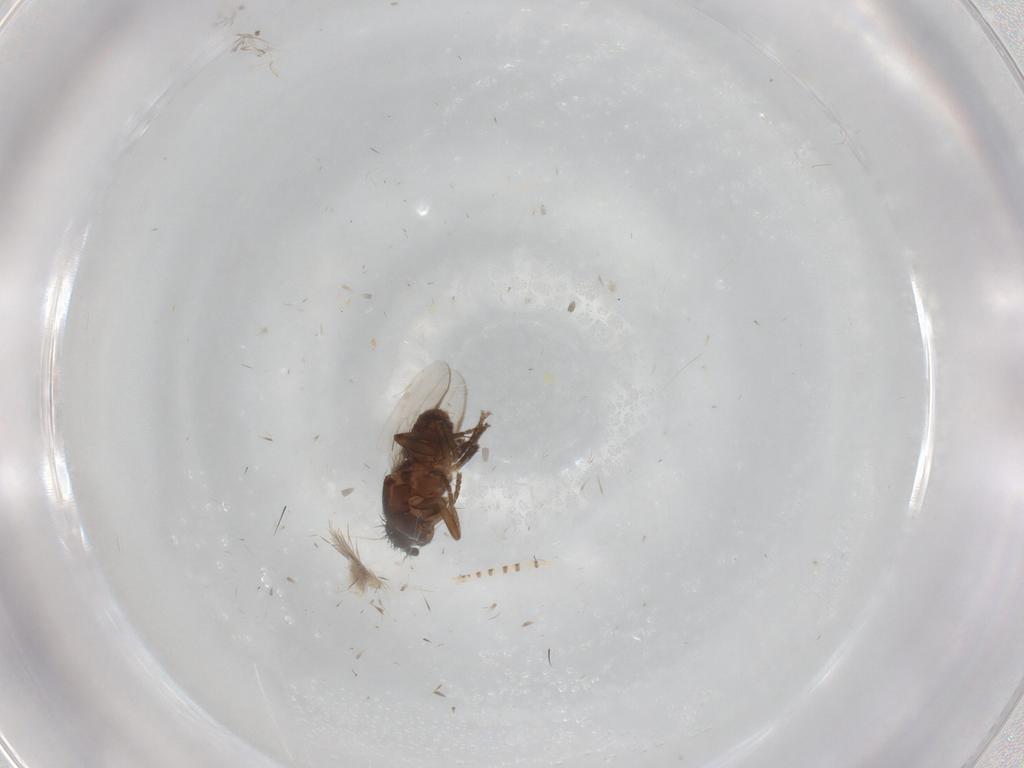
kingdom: Animalia
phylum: Arthropoda
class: Insecta
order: Diptera
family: Sphaeroceridae
